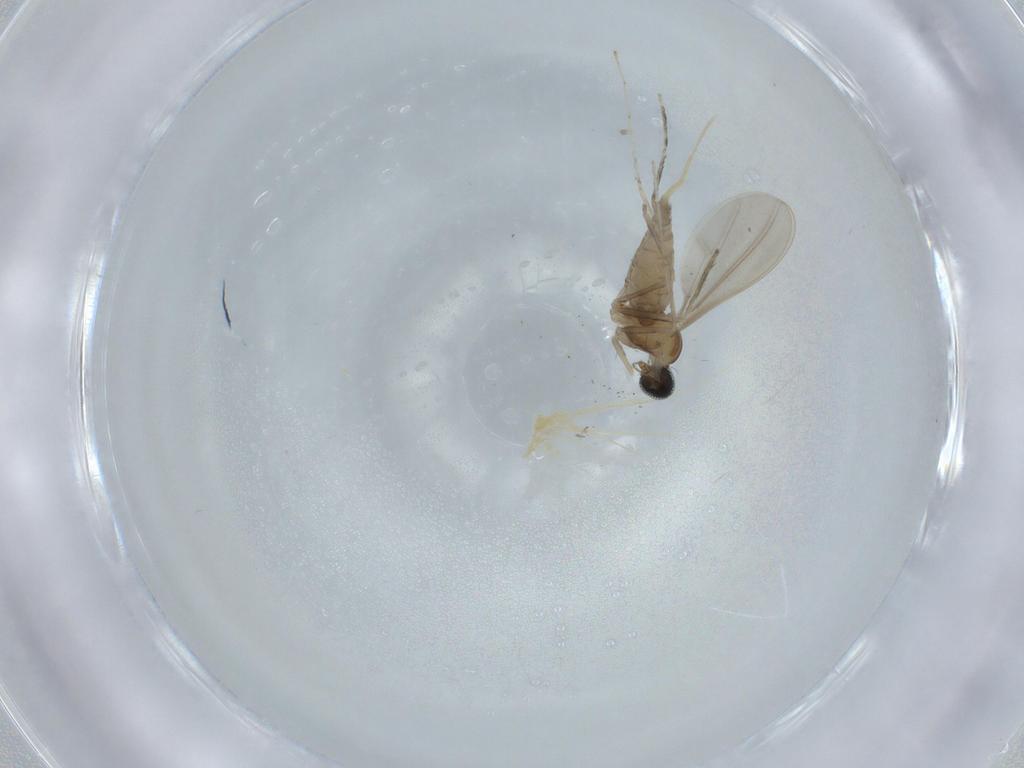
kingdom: Animalia
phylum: Arthropoda
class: Insecta
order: Diptera
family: Cecidomyiidae
